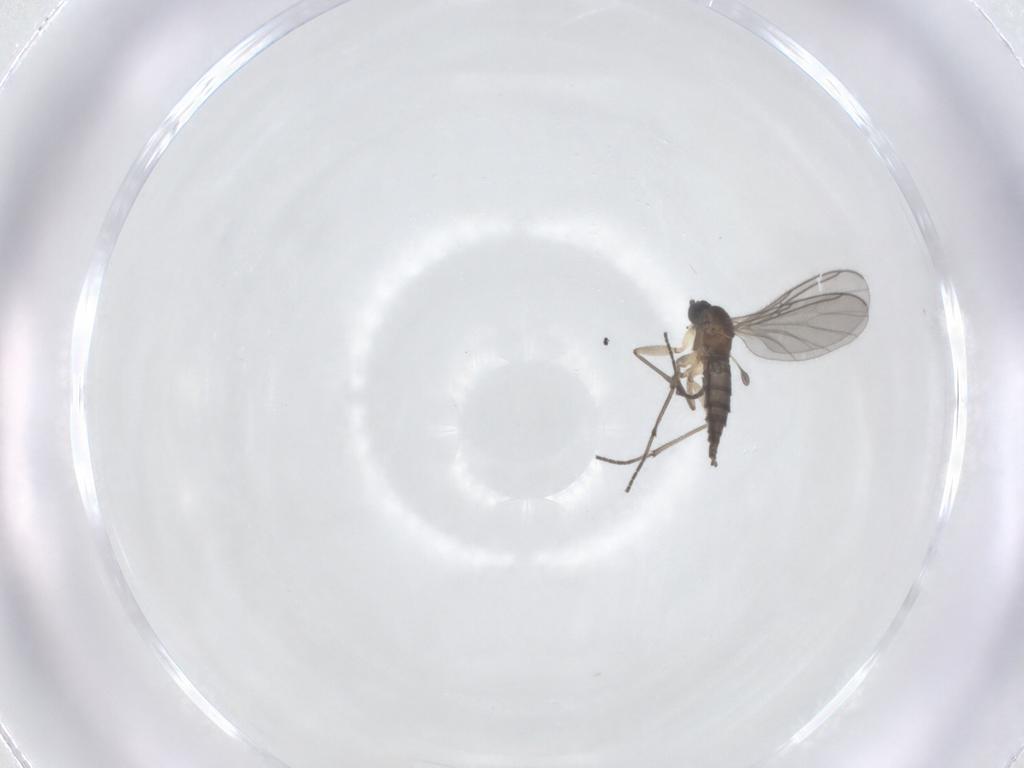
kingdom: Animalia
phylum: Arthropoda
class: Insecta
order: Diptera
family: Sciaridae
